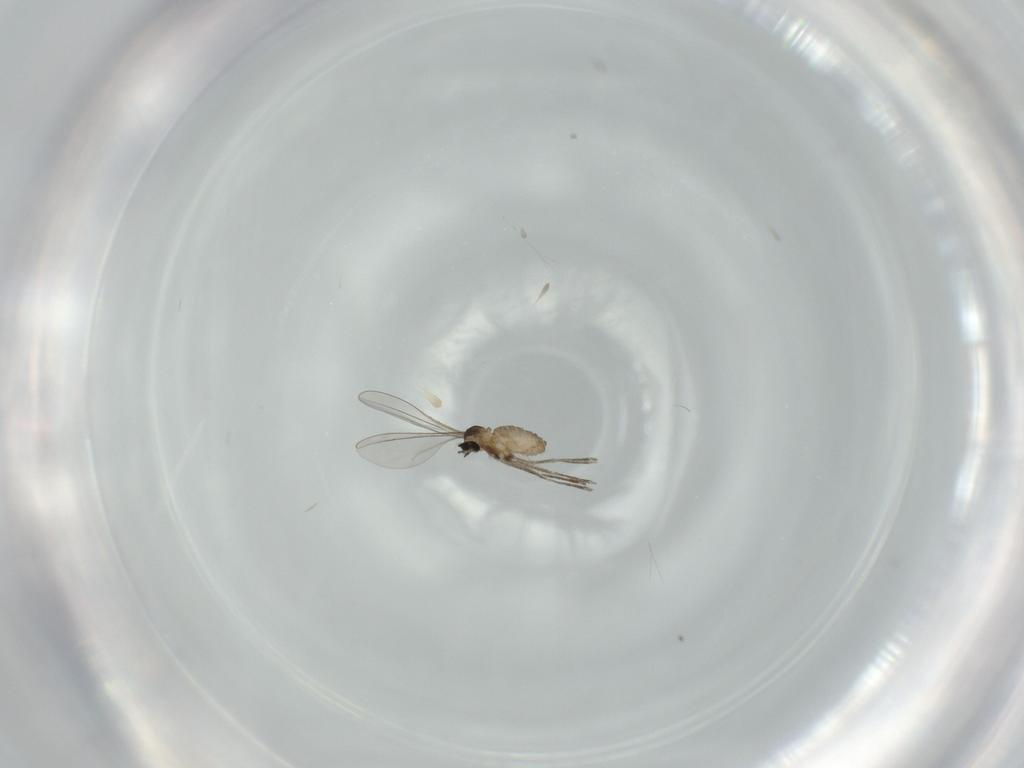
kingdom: Animalia
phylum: Arthropoda
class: Insecta
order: Diptera
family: Cecidomyiidae
